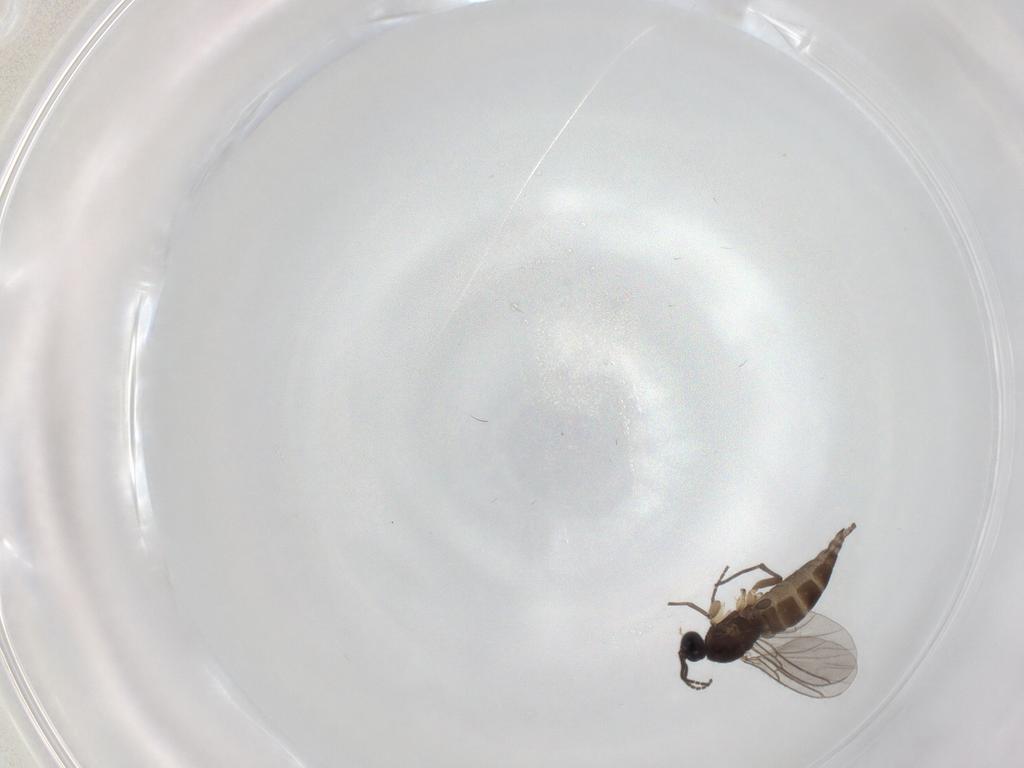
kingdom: Animalia
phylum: Arthropoda
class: Insecta
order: Diptera
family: Sciaridae
